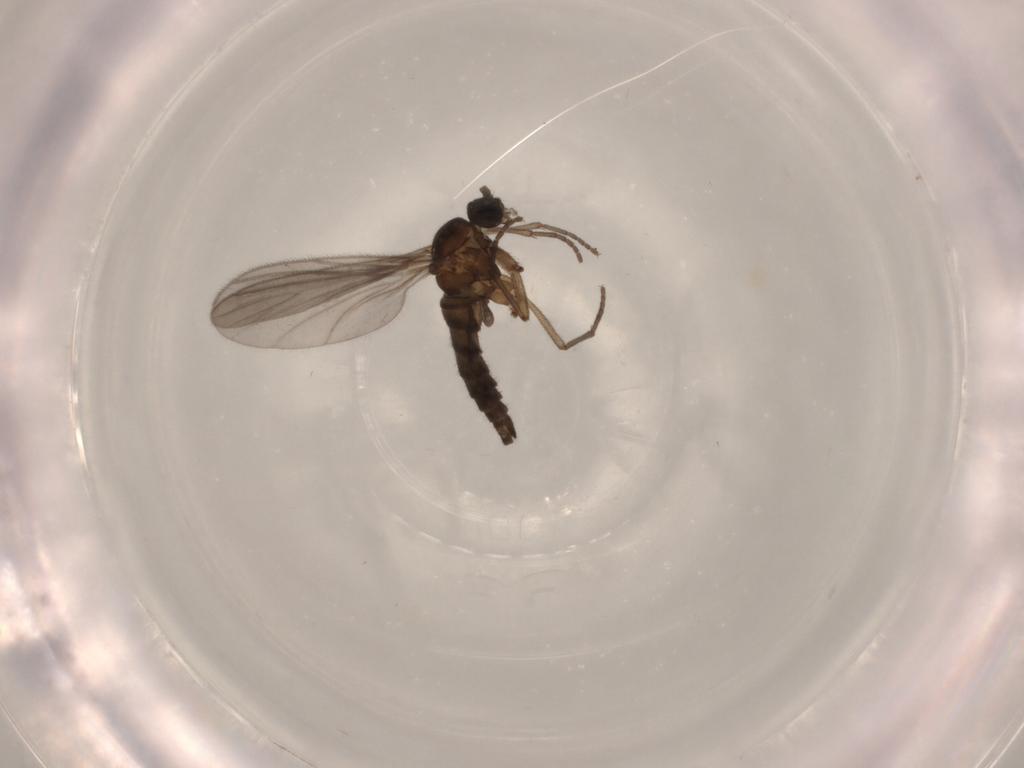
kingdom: Animalia
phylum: Arthropoda
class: Insecta
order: Diptera
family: Sciaridae
